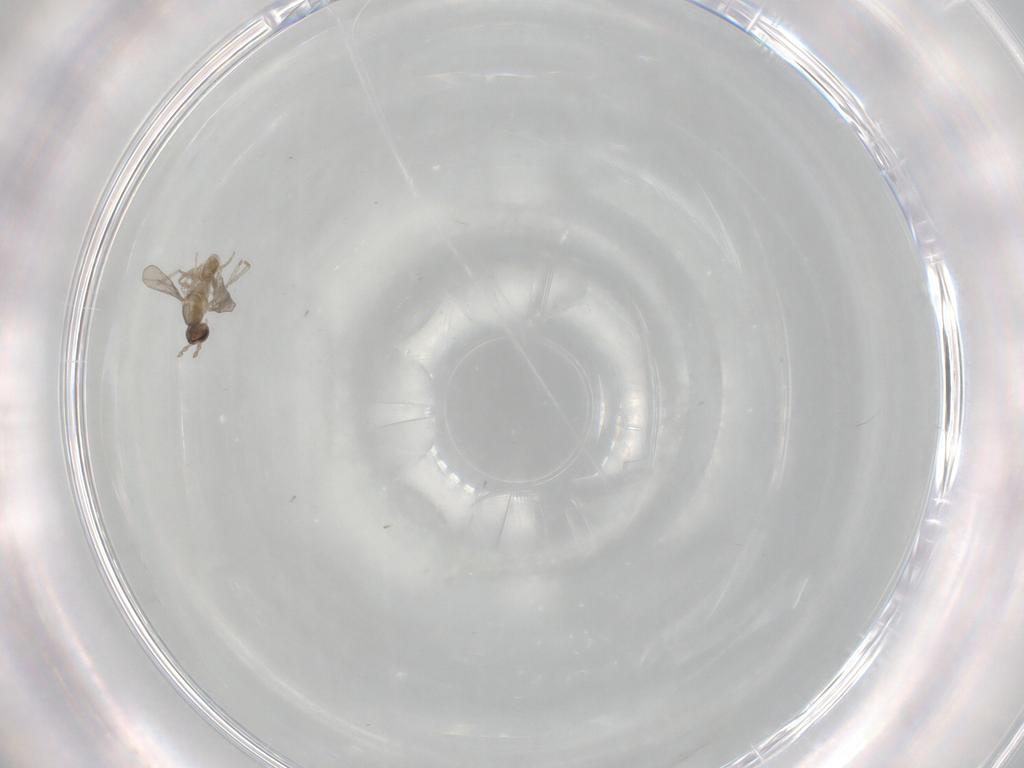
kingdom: Animalia
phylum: Arthropoda
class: Insecta
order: Diptera
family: Cecidomyiidae
